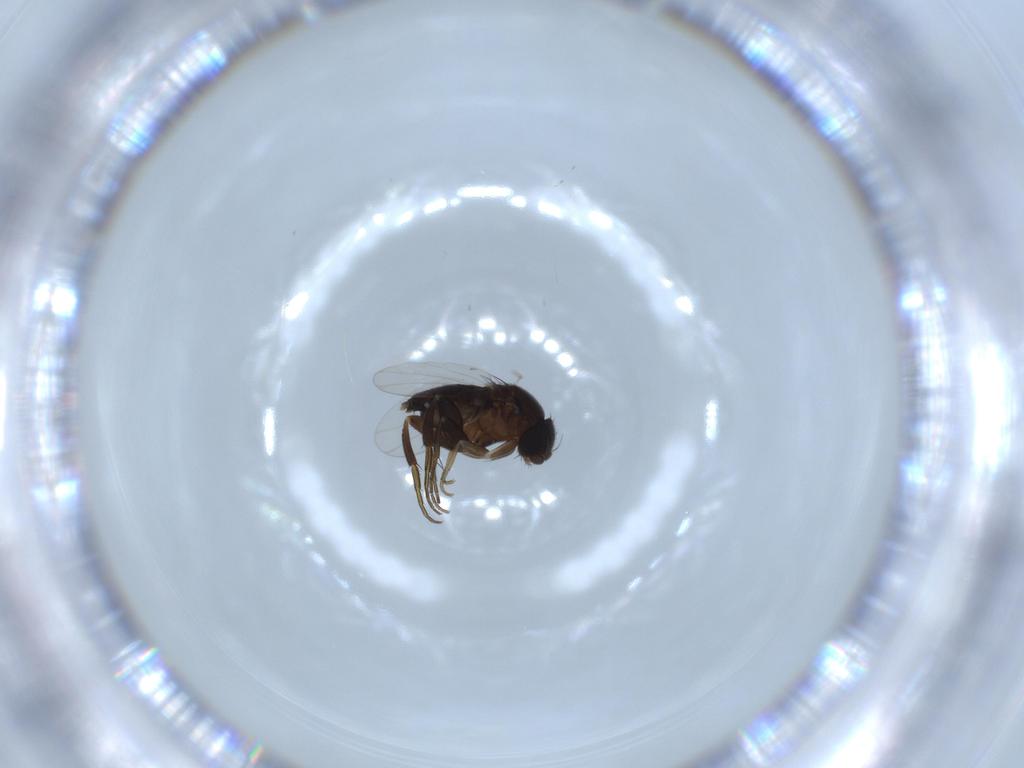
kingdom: Animalia
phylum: Arthropoda
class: Insecta
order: Diptera
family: Phoridae
